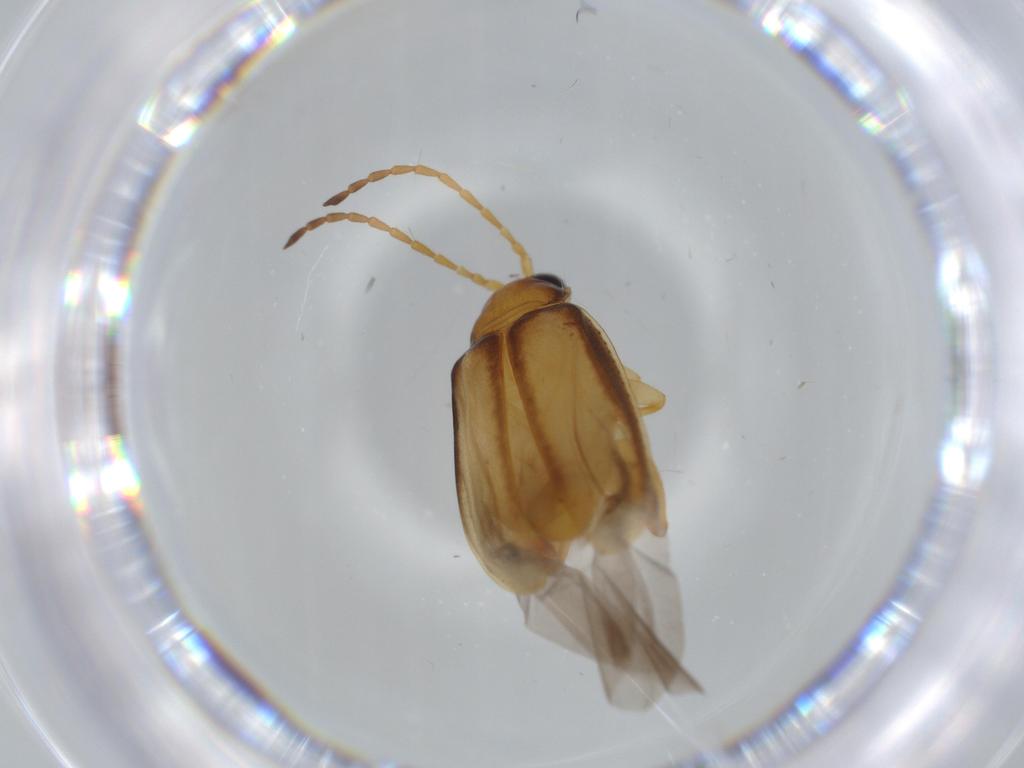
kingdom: Animalia
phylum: Arthropoda
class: Insecta
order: Coleoptera
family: Chrysomelidae
